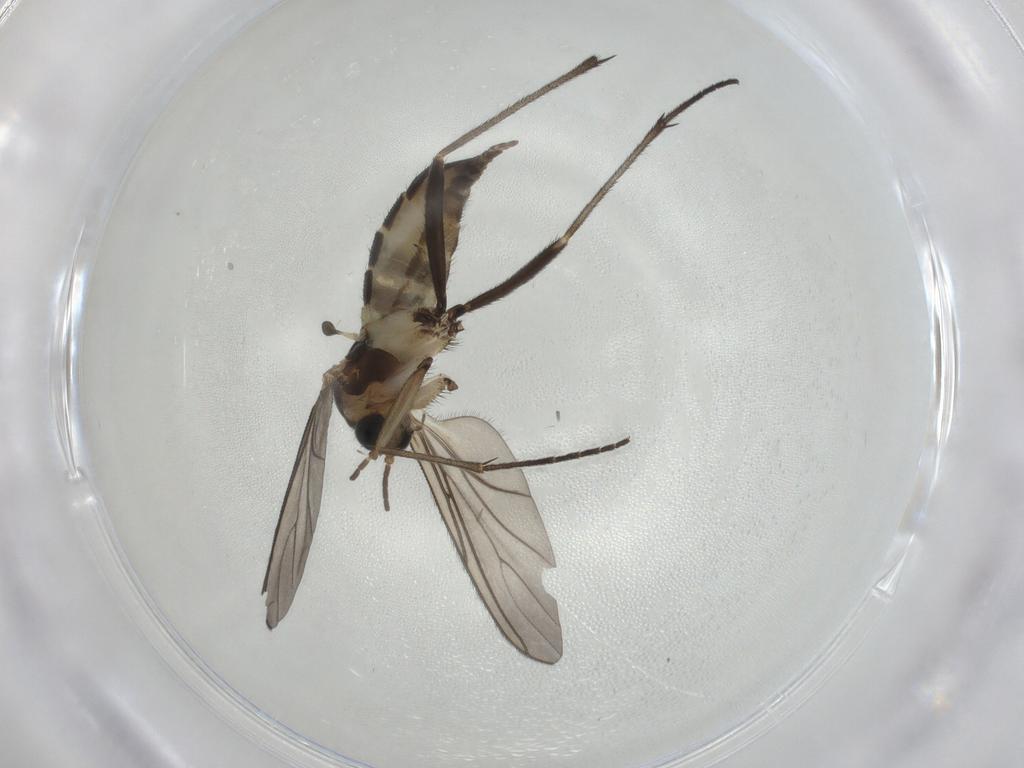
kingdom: Animalia
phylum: Arthropoda
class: Insecta
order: Diptera
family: Sciaridae
